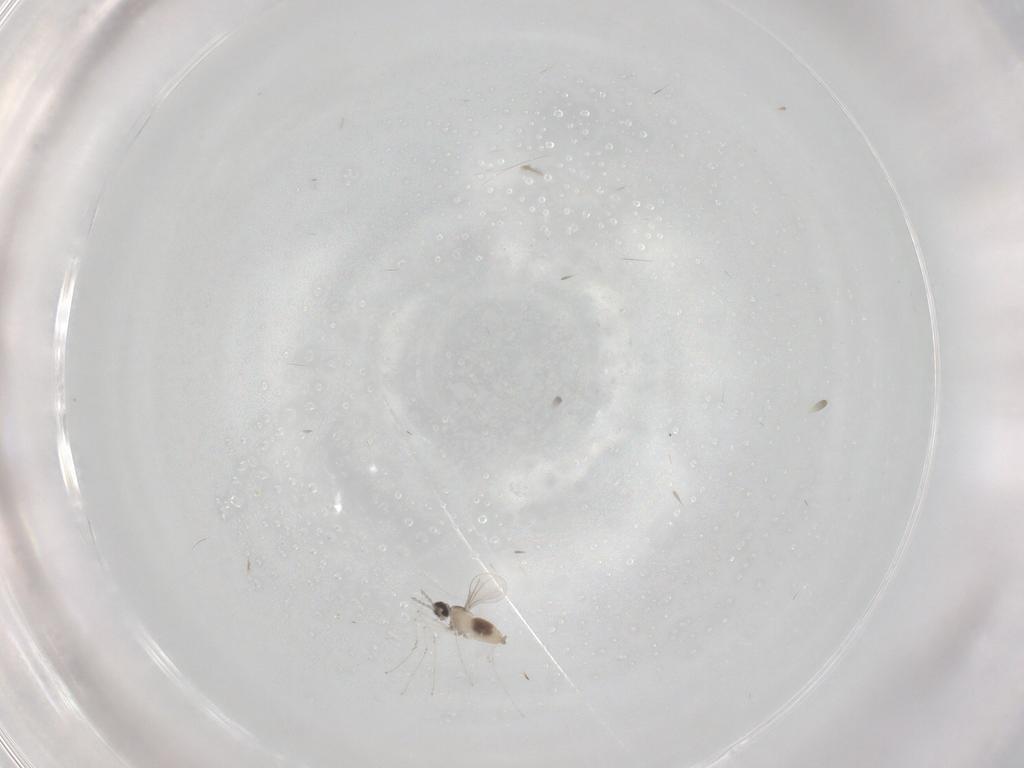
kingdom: Animalia
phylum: Arthropoda
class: Insecta
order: Diptera
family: Cecidomyiidae
